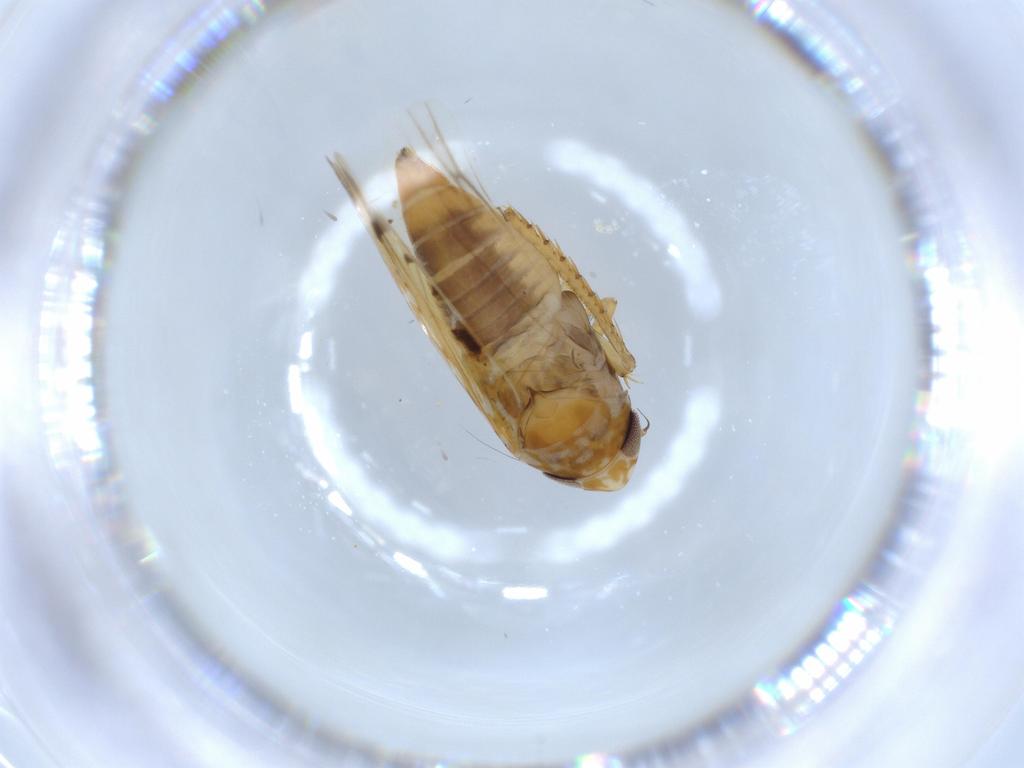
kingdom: Animalia
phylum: Arthropoda
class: Insecta
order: Hemiptera
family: Cicadellidae
